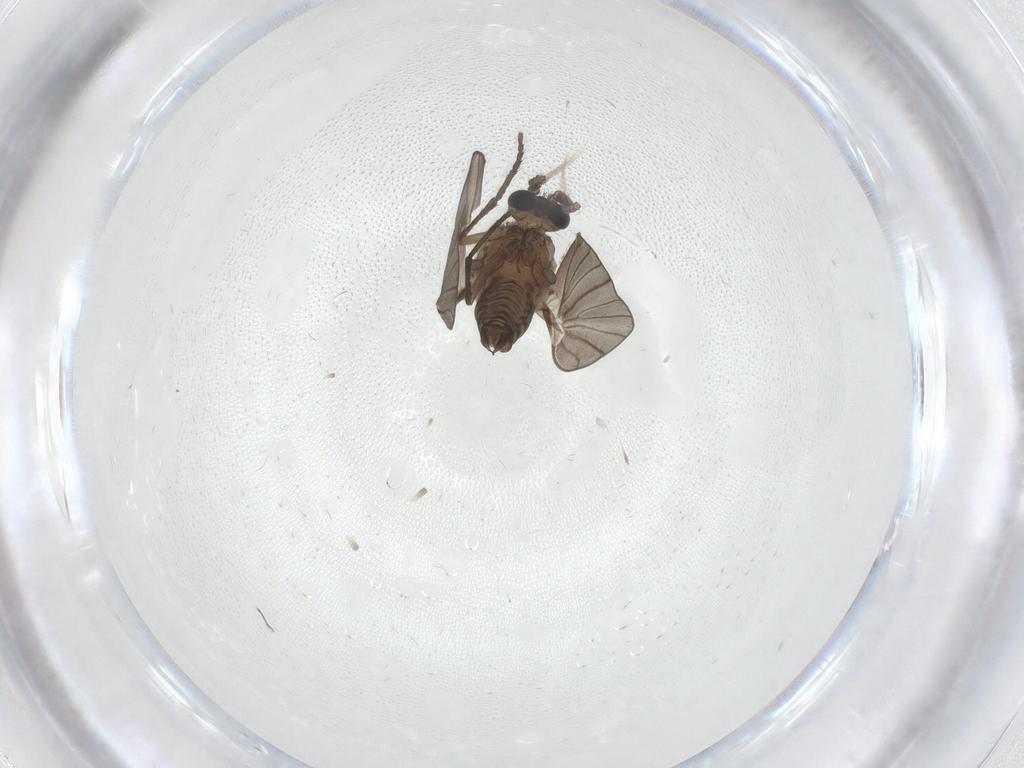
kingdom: Animalia
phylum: Arthropoda
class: Insecta
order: Diptera
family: Psychodidae
